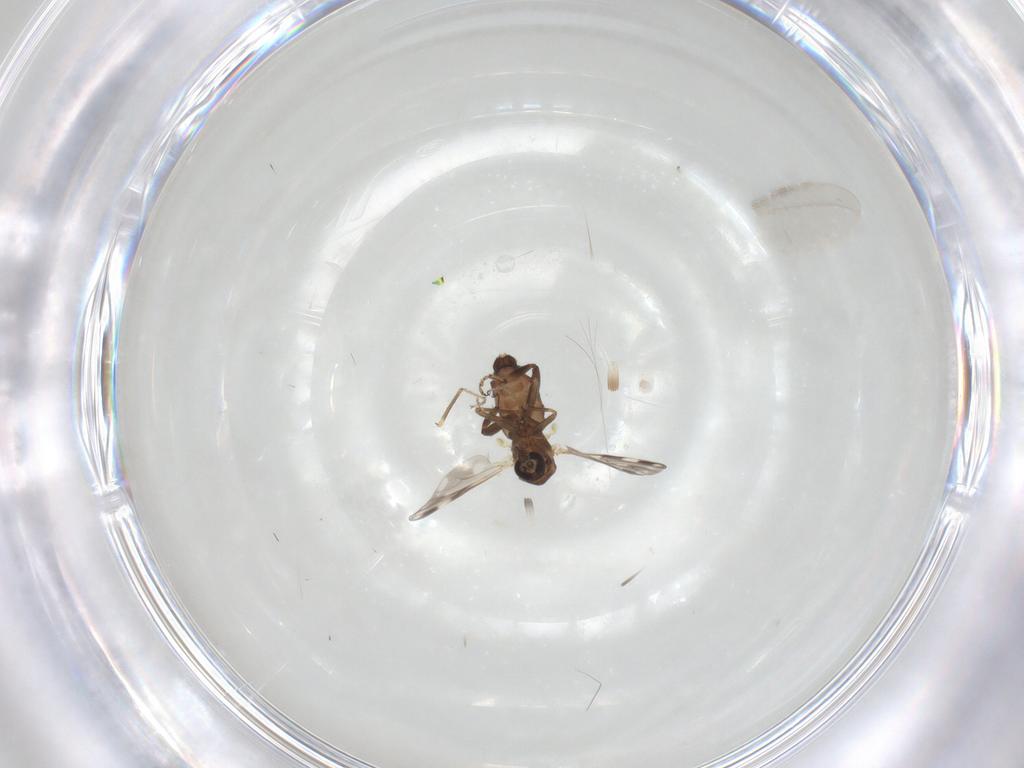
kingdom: Animalia
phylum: Arthropoda
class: Insecta
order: Diptera
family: Ceratopogonidae
